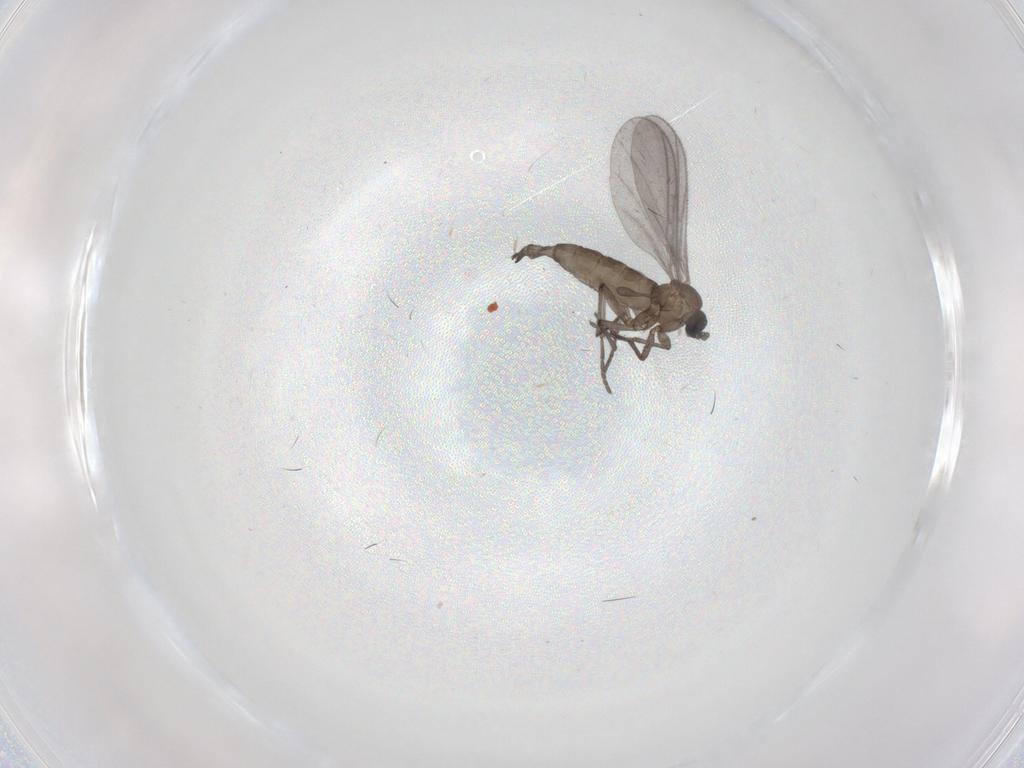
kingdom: Animalia
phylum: Arthropoda
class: Insecta
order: Diptera
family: Sciaridae
